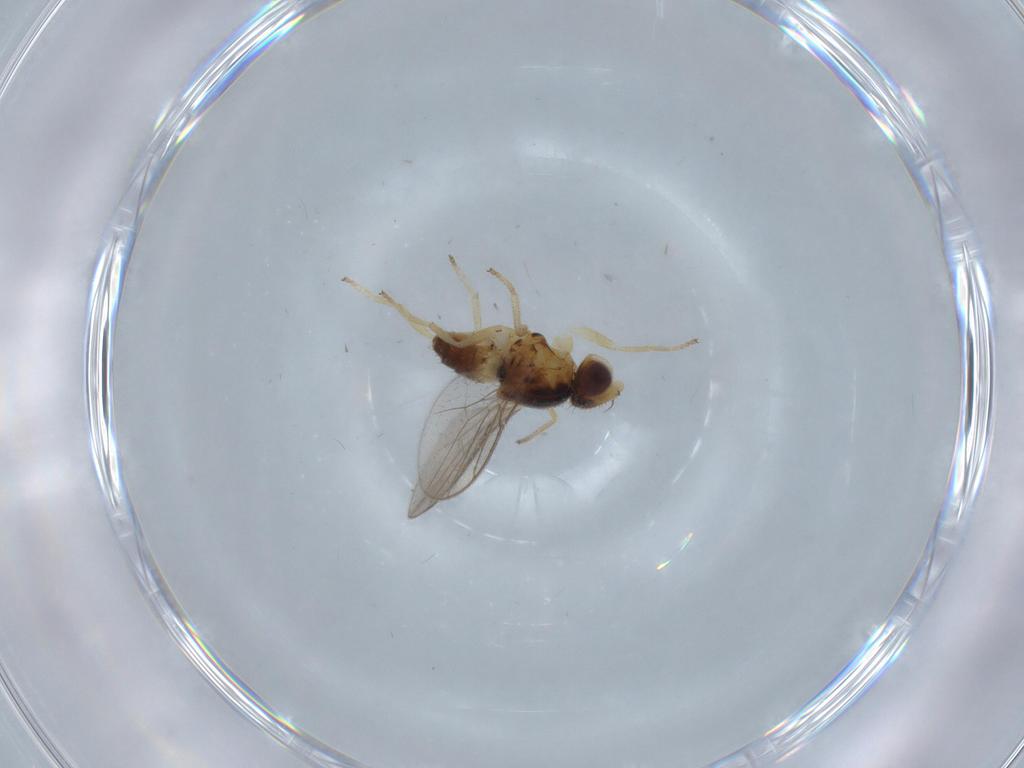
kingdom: Animalia
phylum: Arthropoda
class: Insecta
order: Diptera
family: Chloropidae
